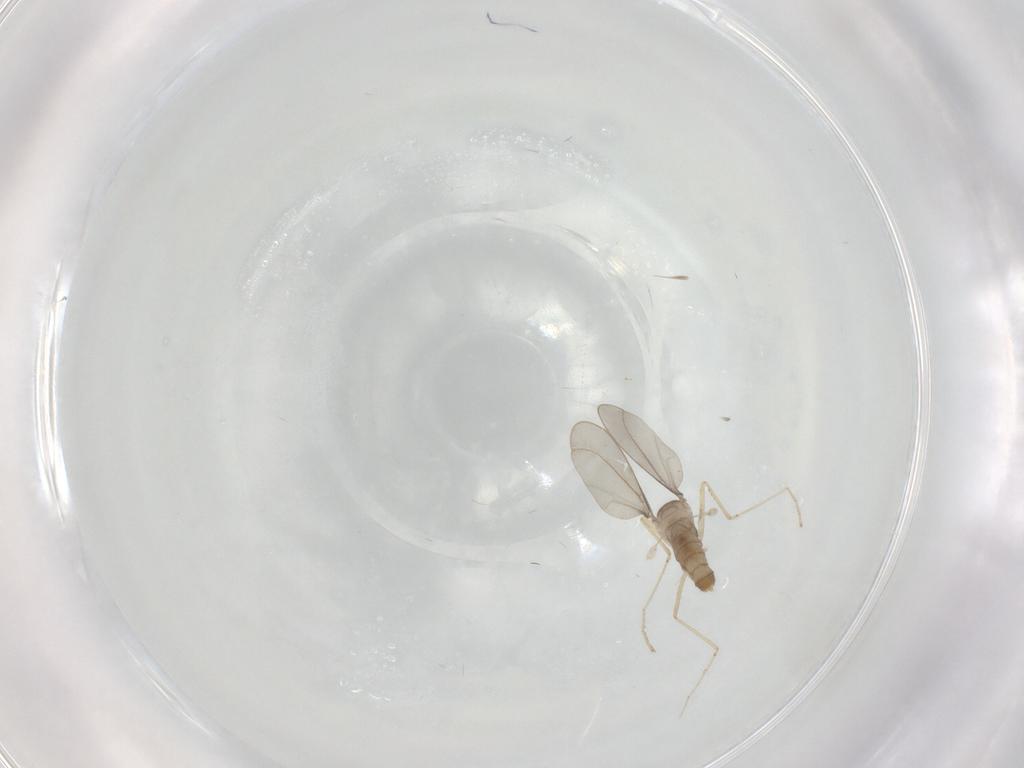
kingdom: Animalia
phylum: Arthropoda
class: Insecta
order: Diptera
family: Cecidomyiidae
